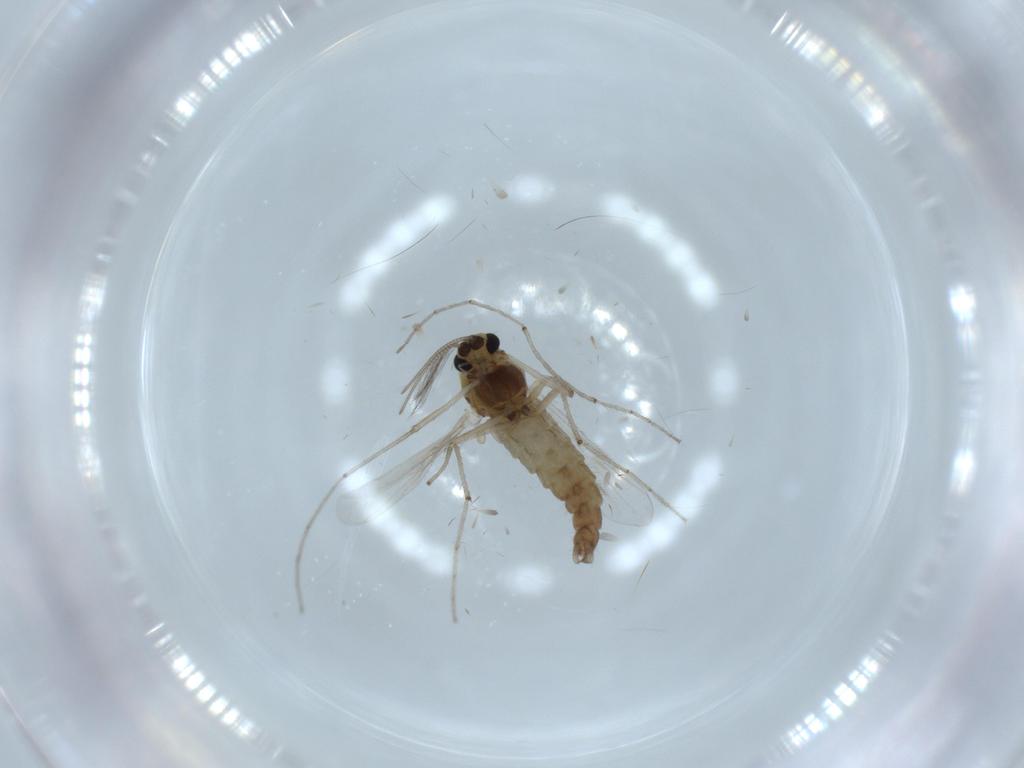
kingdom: Animalia
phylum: Arthropoda
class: Insecta
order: Diptera
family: Chironomidae
